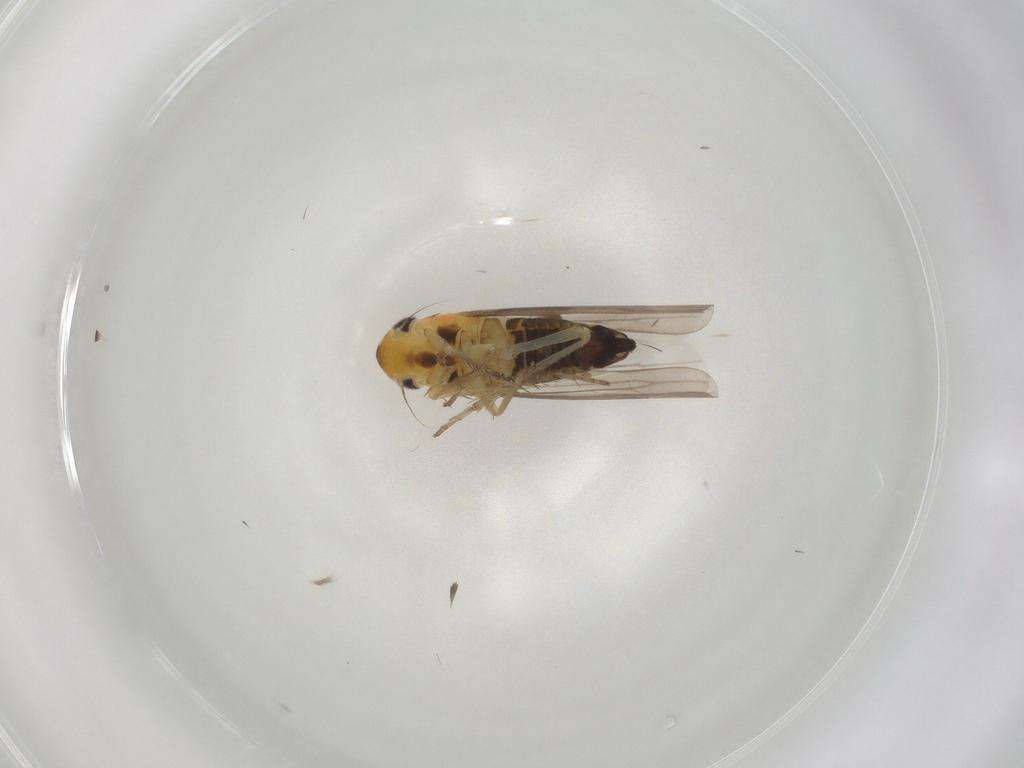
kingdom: Animalia
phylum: Arthropoda
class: Insecta
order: Hemiptera
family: Cicadellidae
